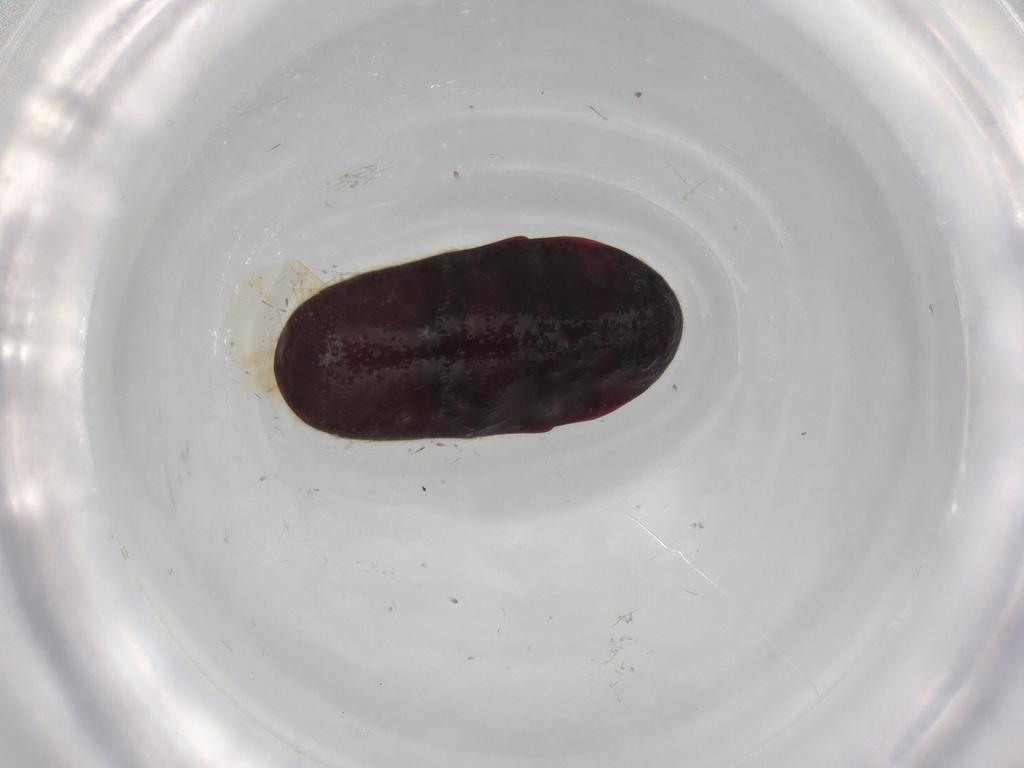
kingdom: Animalia
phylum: Arthropoda
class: Insecta
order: Coleoptera
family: Throscidae
